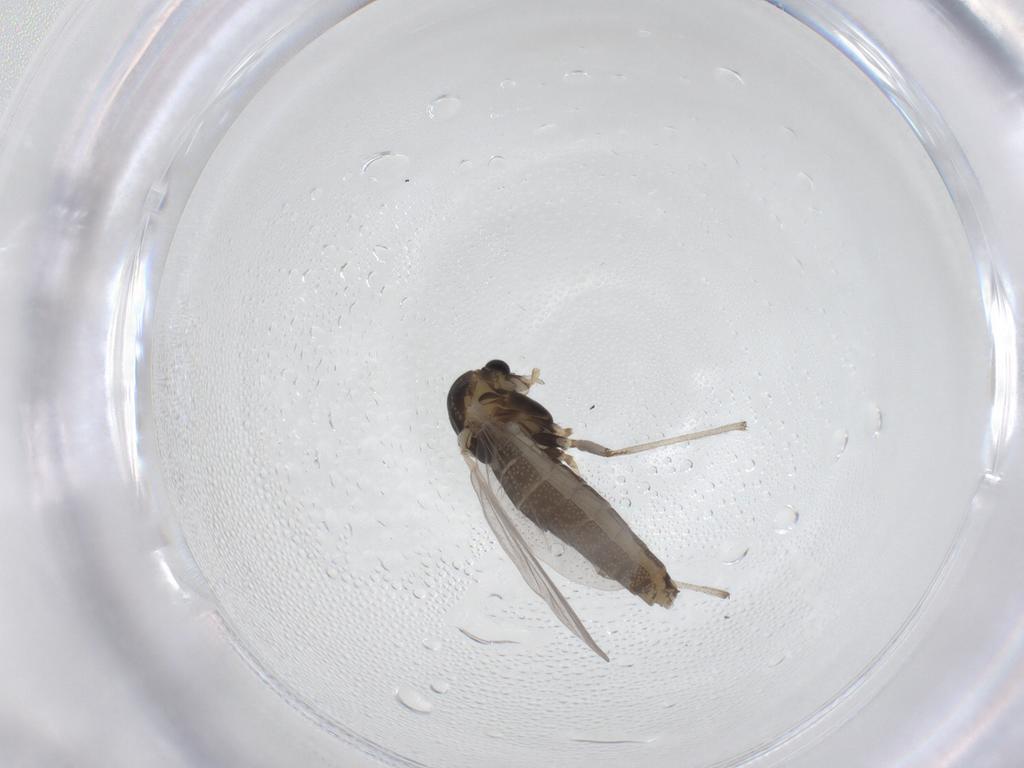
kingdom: Animalia
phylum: Arthropoda
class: Insecta
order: Diptera
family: Chironomidae
